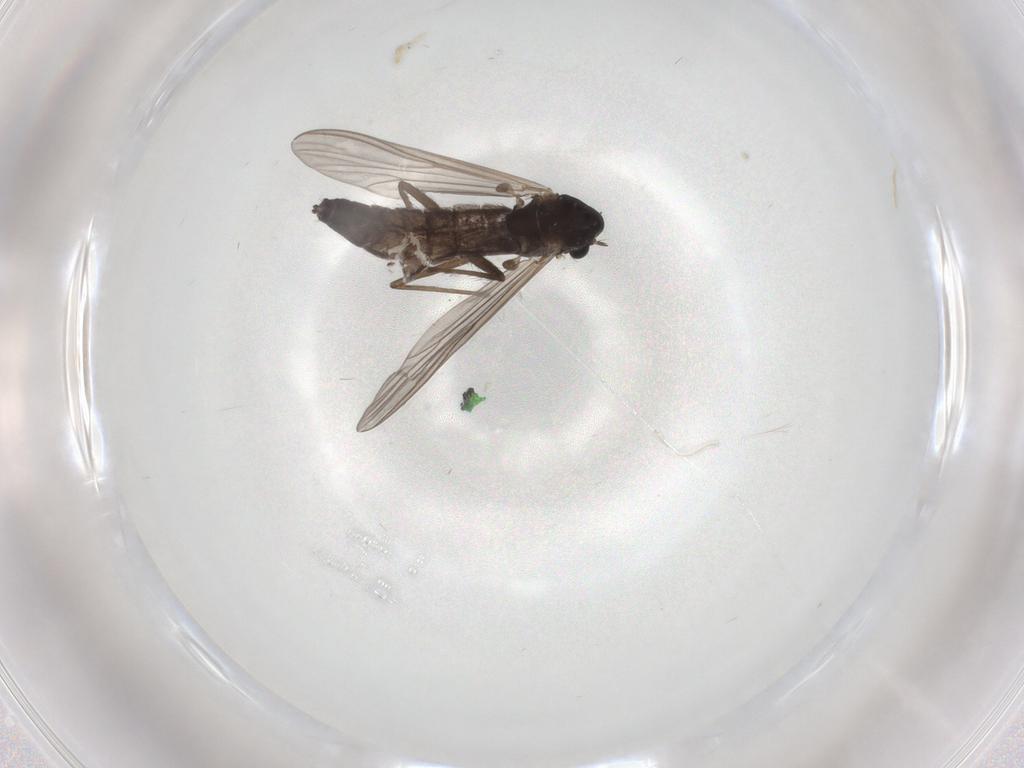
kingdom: Animalia
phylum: Arthropoda
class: Insecta
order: Diptera
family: Chironomidae
